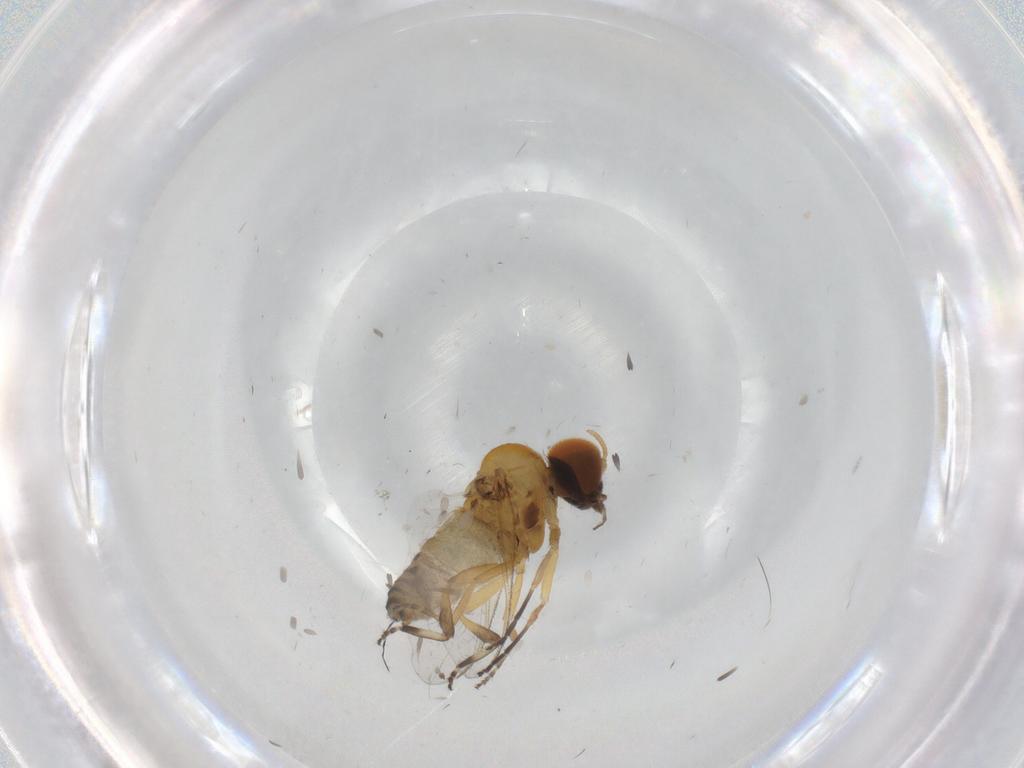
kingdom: Animalia
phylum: Arthropoda
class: Insecta
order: Diptera
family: Simuliidae
